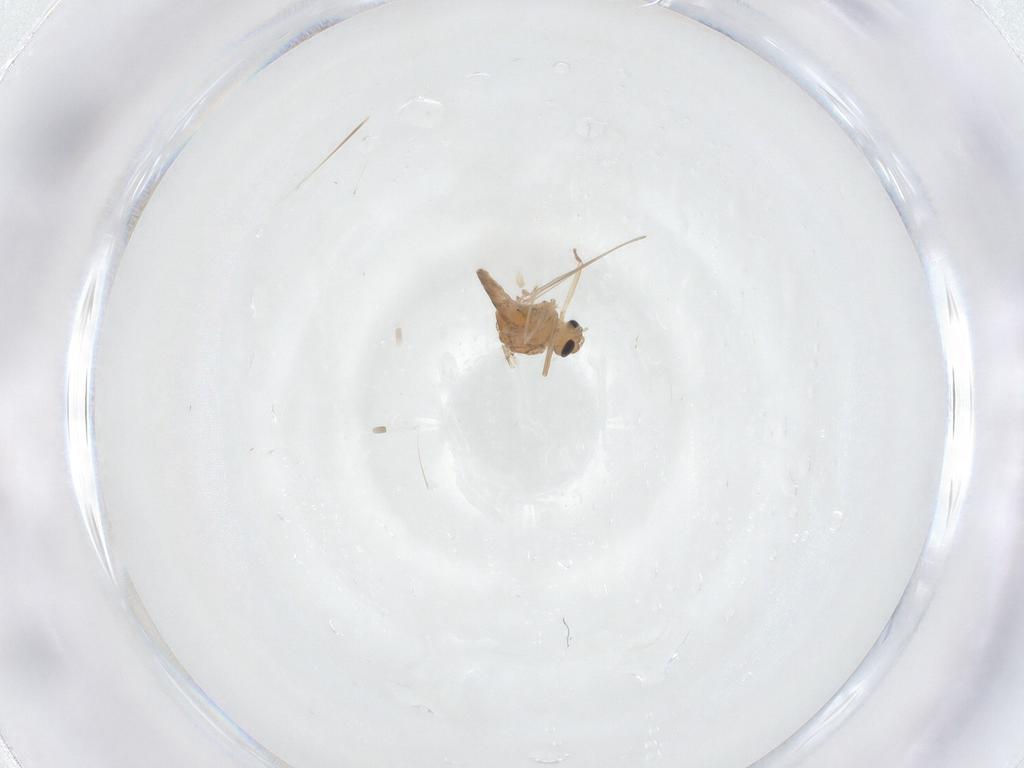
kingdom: Animalia
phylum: Arthropoda
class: Insecta
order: Diptera
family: Chironomidae
